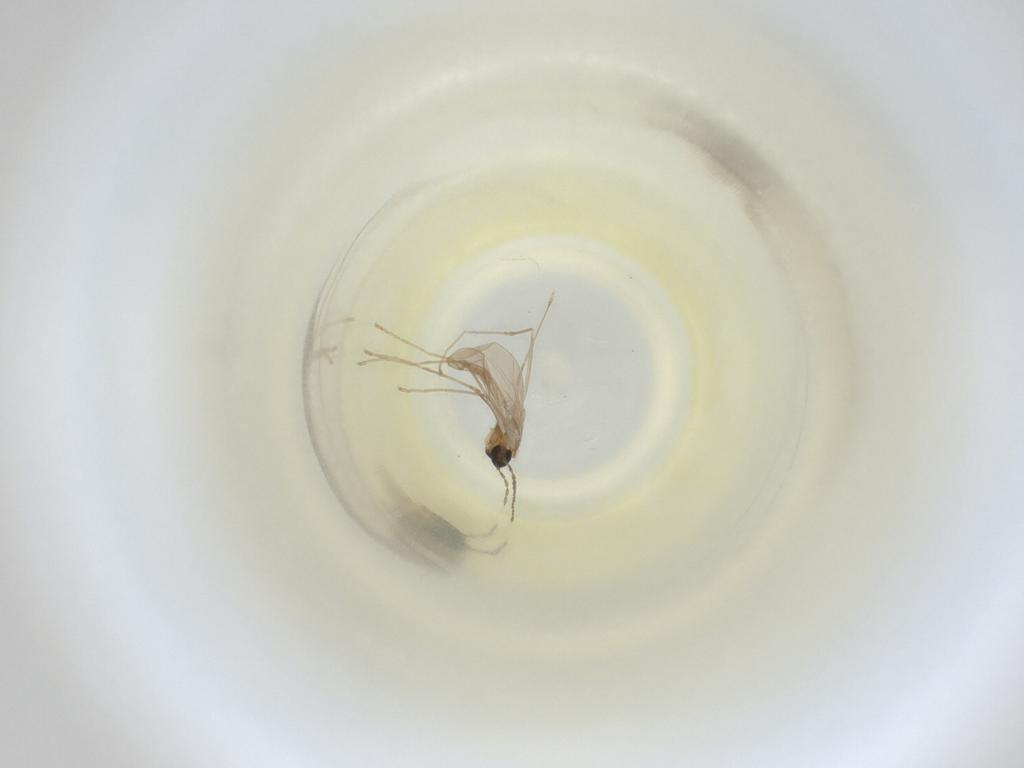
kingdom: Animalia
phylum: Arthropoda
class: Insecta
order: Diptera
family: Cecidomyiidae
